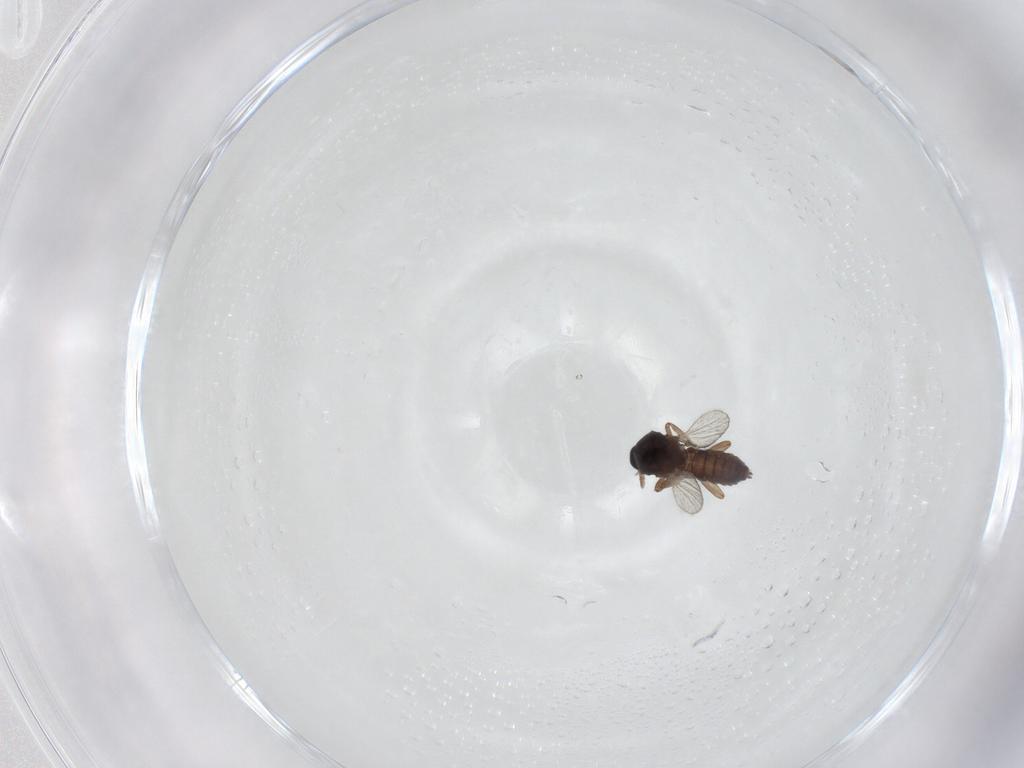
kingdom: Animalia
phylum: Arthropoda
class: Insecta
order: Diptera
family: Ceratopogonidae
